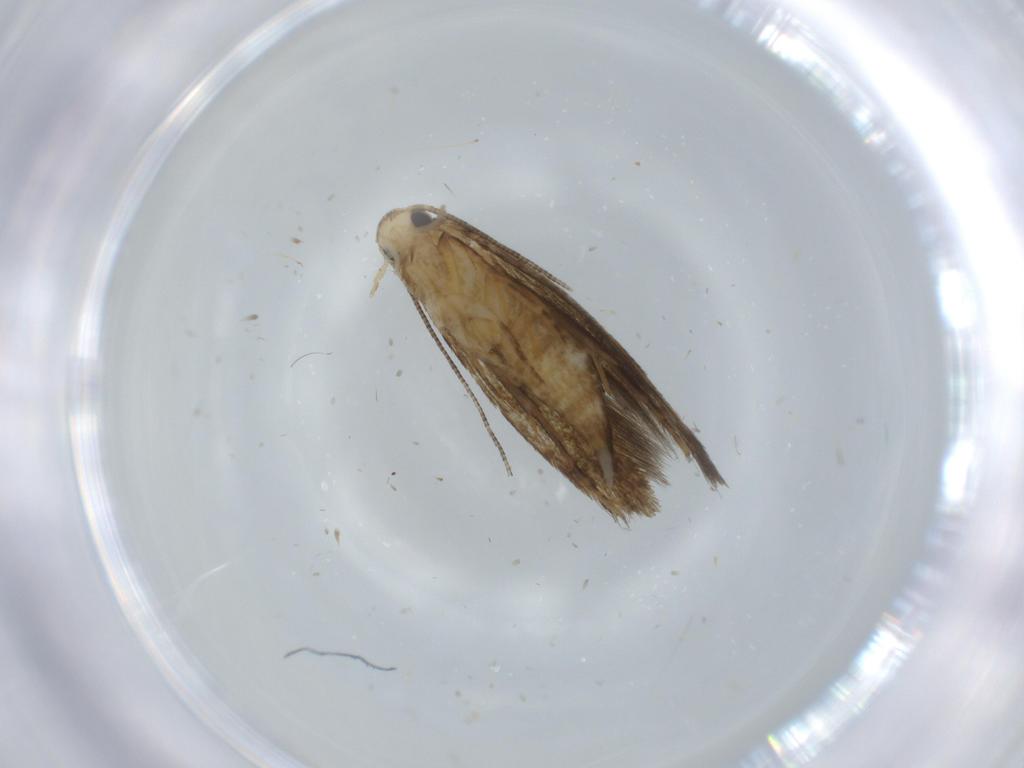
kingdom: Animalia
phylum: Arthropoda
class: Insecta
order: Lepidoptera
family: Tineidae
